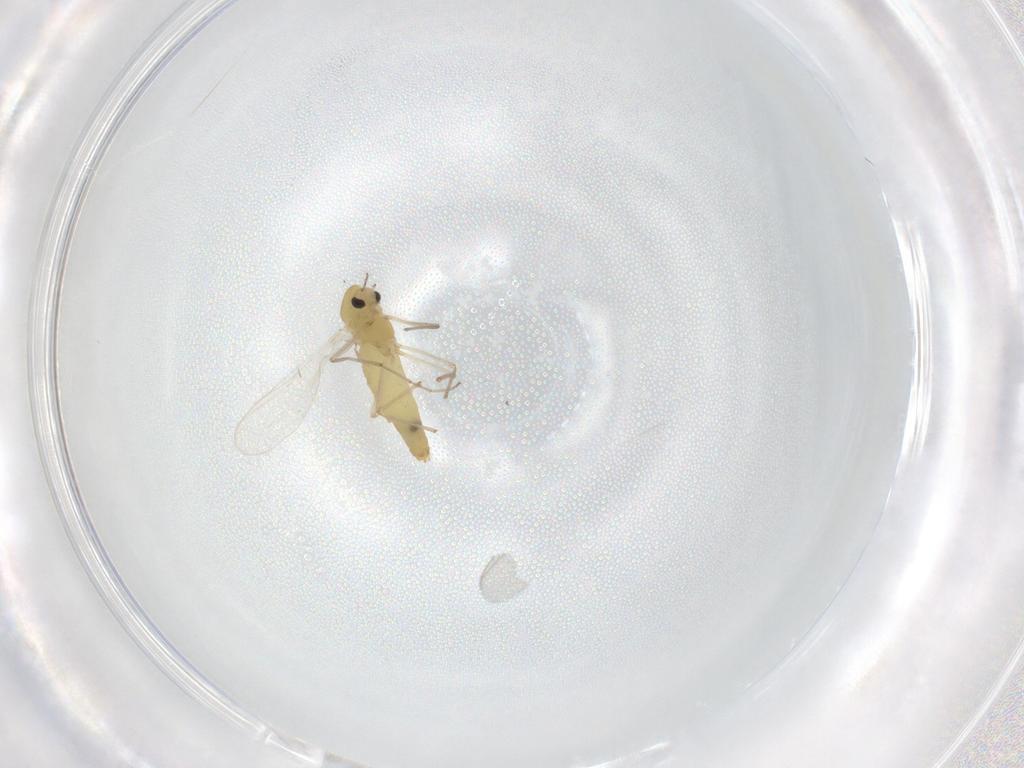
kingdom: Animalia
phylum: Arthropoda
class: Insecta
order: Diptera
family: Chironomidae
